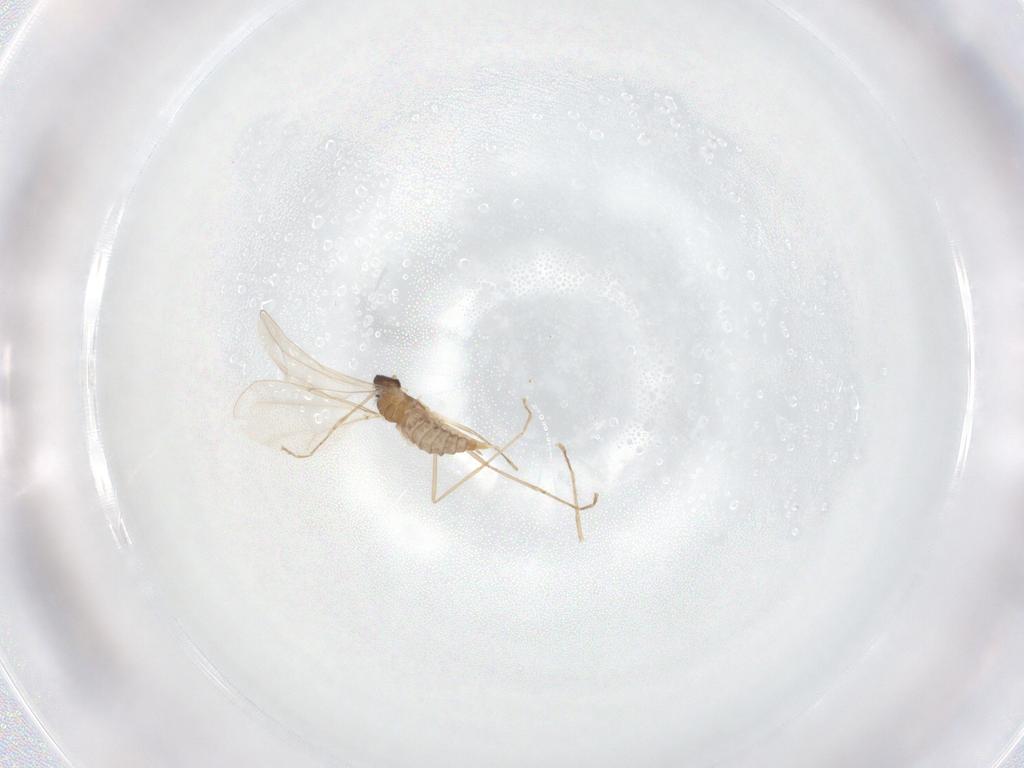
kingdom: Animalia
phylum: Arthropoda
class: Insecta
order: Diptera
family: Cecidomyiidae
